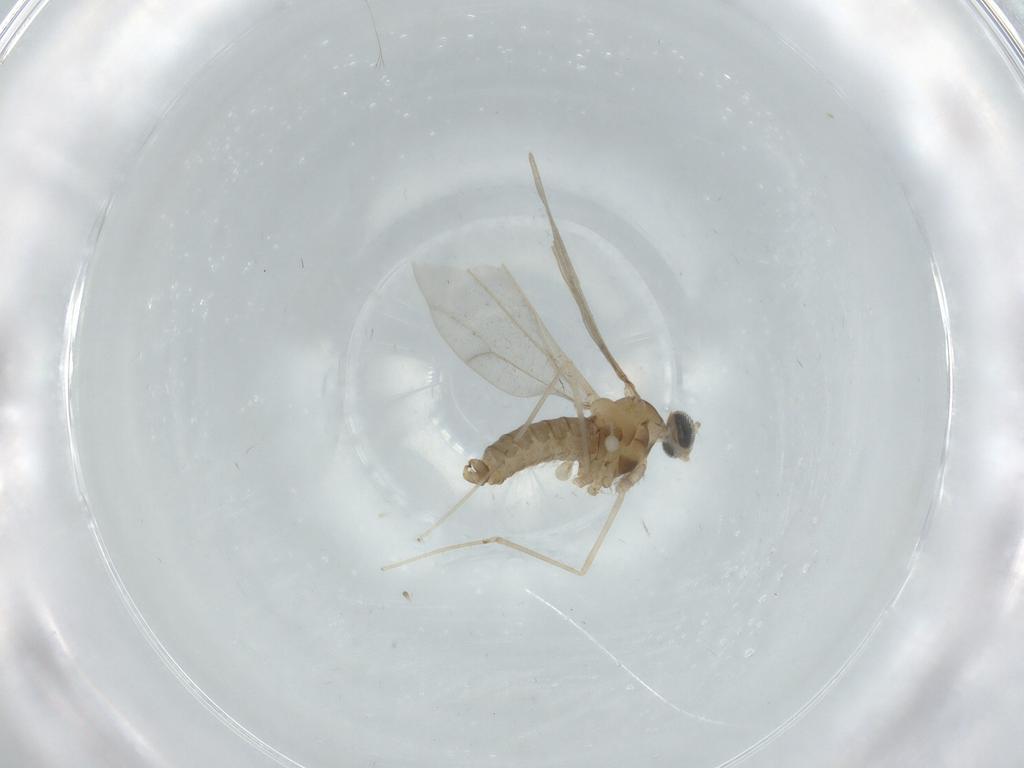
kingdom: Animalia
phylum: Arthropoda
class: Insecta
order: Diptera
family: Cecidomyiidae
